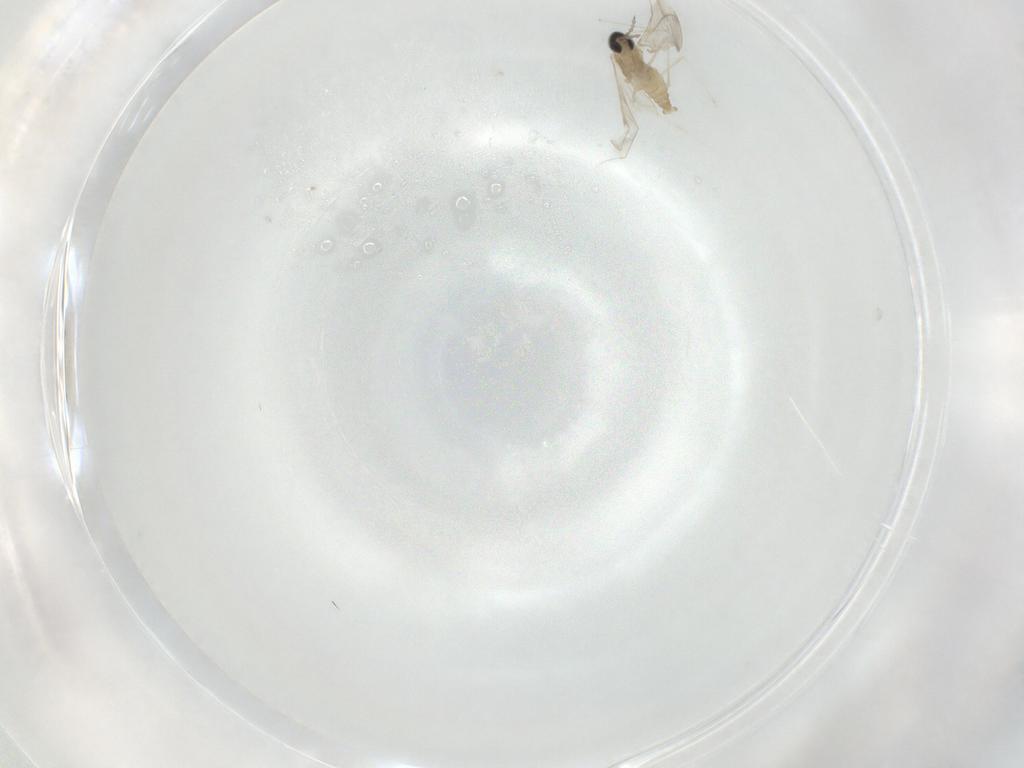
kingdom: Animalia
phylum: Arthropoda
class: Insecta
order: Diptera
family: Cecidomyiidae
